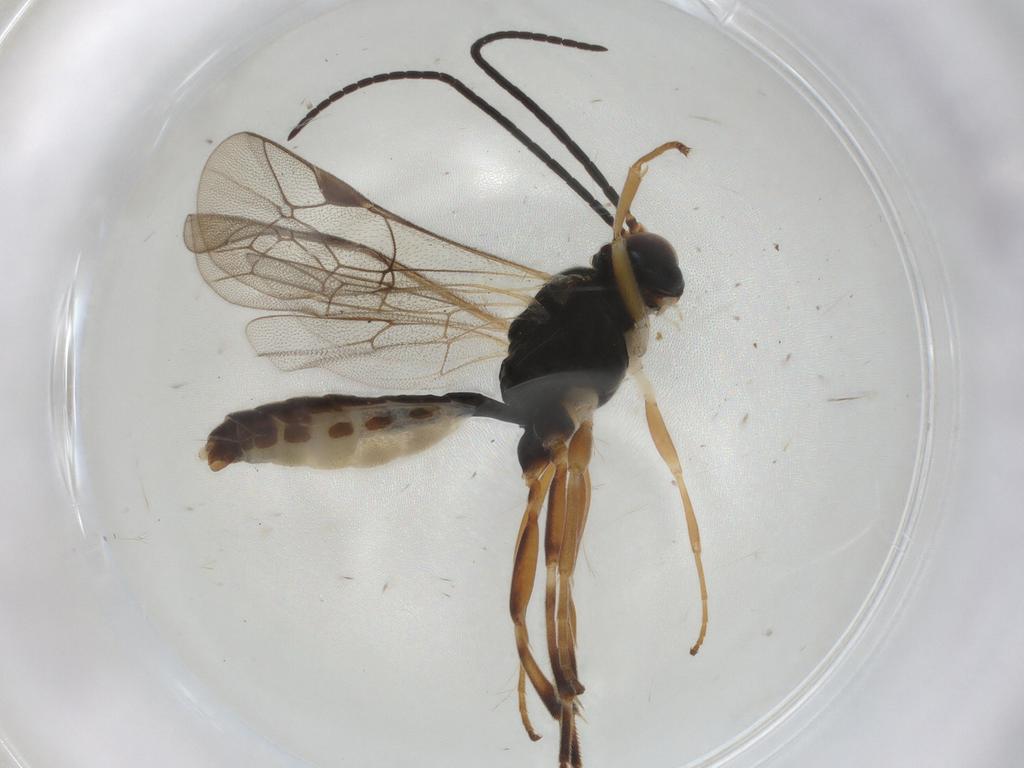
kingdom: Animalia
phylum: Arthropoda
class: Insecta
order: Hymenoptera
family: Ichneumonidae
